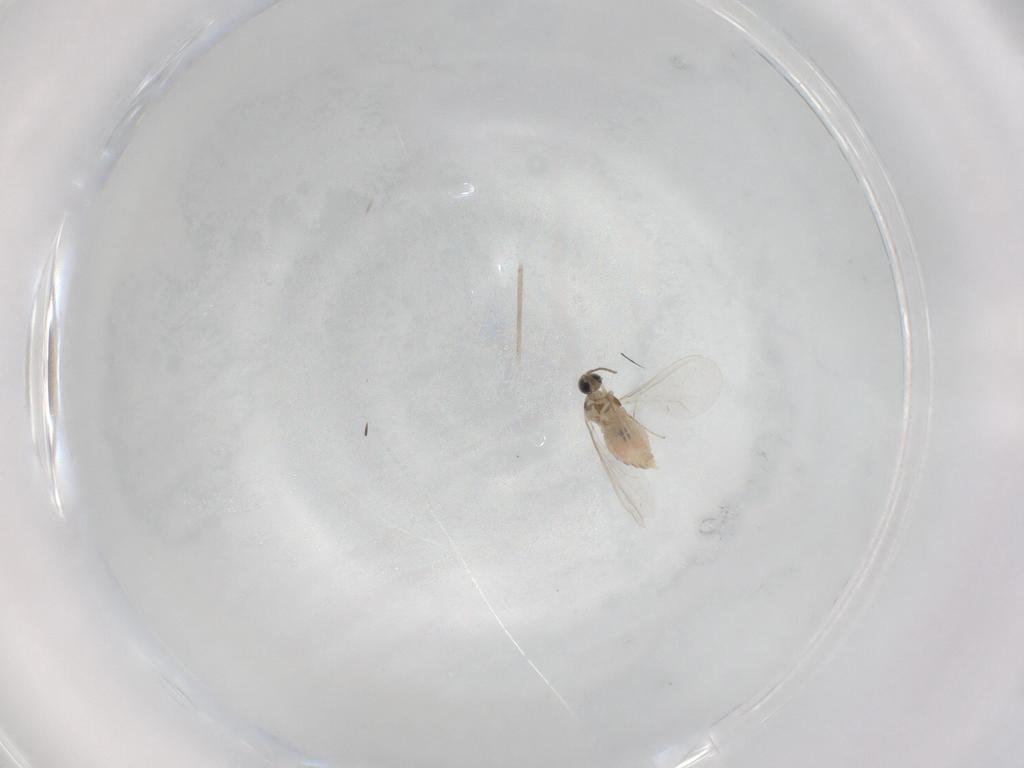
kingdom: Animalia
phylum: Arthropoda
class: Insecta
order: Diptera
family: Cecidomyiidae
